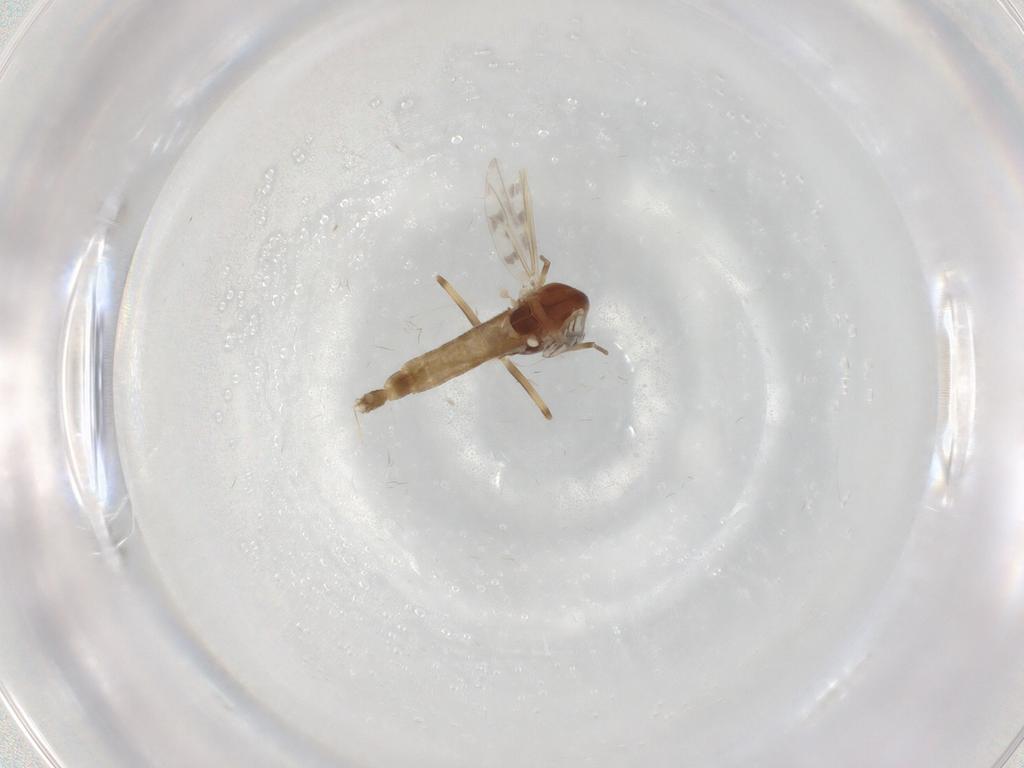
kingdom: Animalia
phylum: Arthropoda
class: Insecta
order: Diptera
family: Chironomidae
